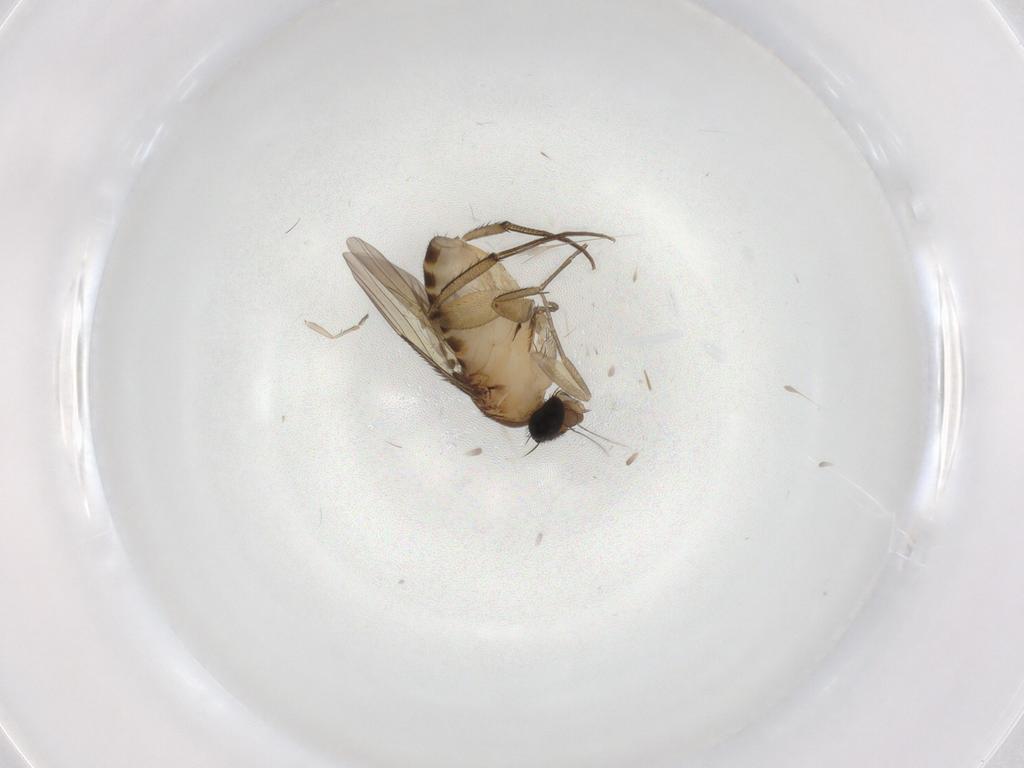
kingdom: Animalia
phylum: Arthropoda
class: Insecta
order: Diptera
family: Phoridae
